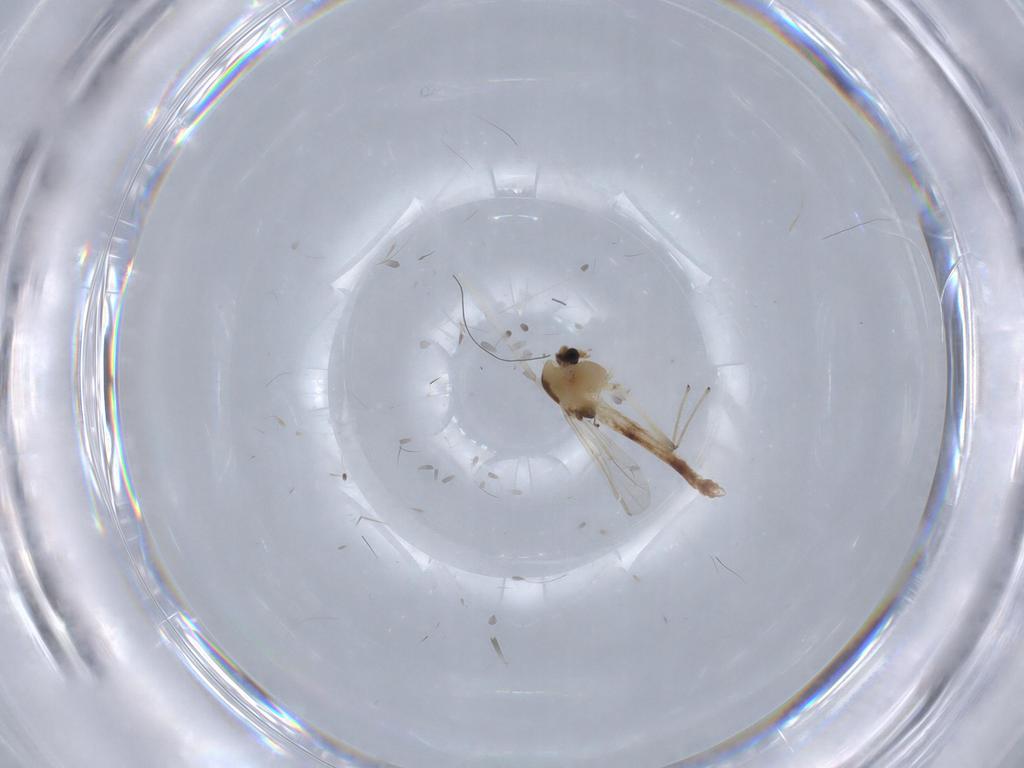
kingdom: Animalia
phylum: Arthropoda
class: Insecta
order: Diptera
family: Chironomidae
